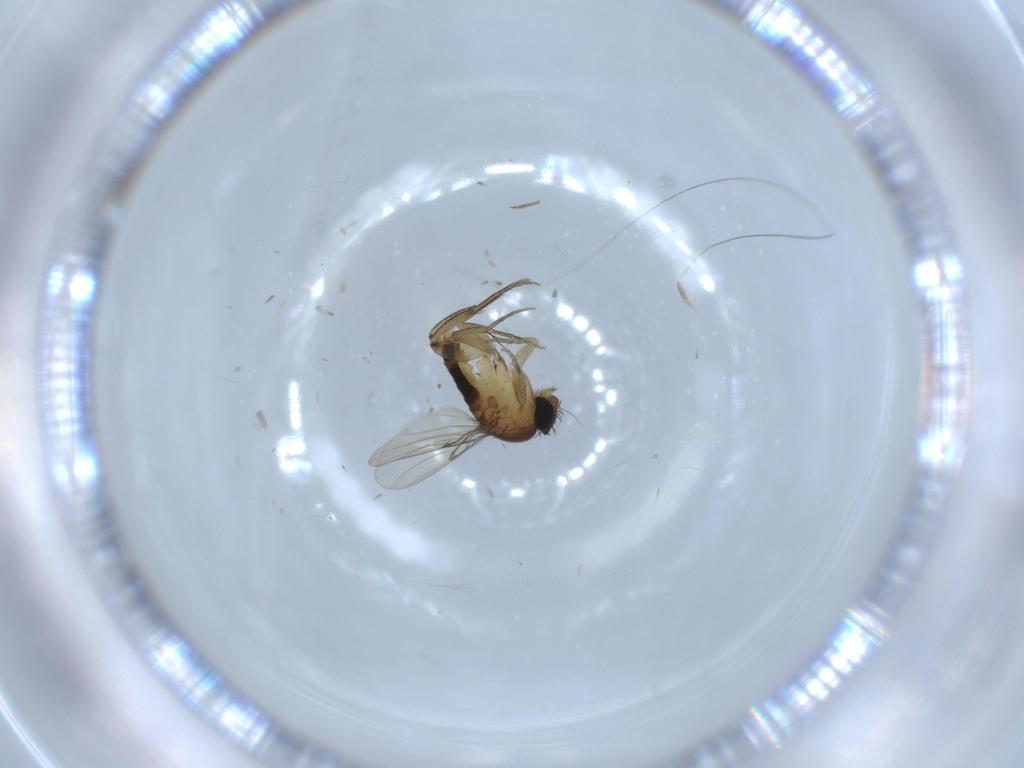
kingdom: Animalia
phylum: Arthropoda
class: Insecta
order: Diptera
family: Phoridae
